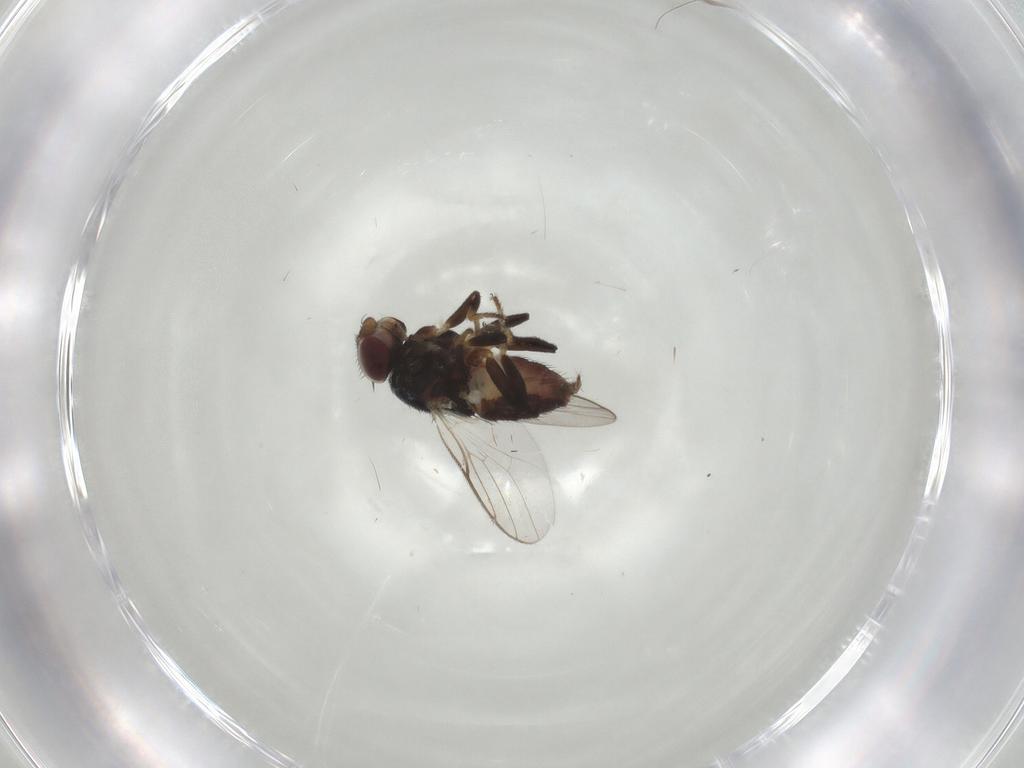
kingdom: Animalia
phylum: Arthropoda
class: Insecta
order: Diptera
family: Chloropidae
